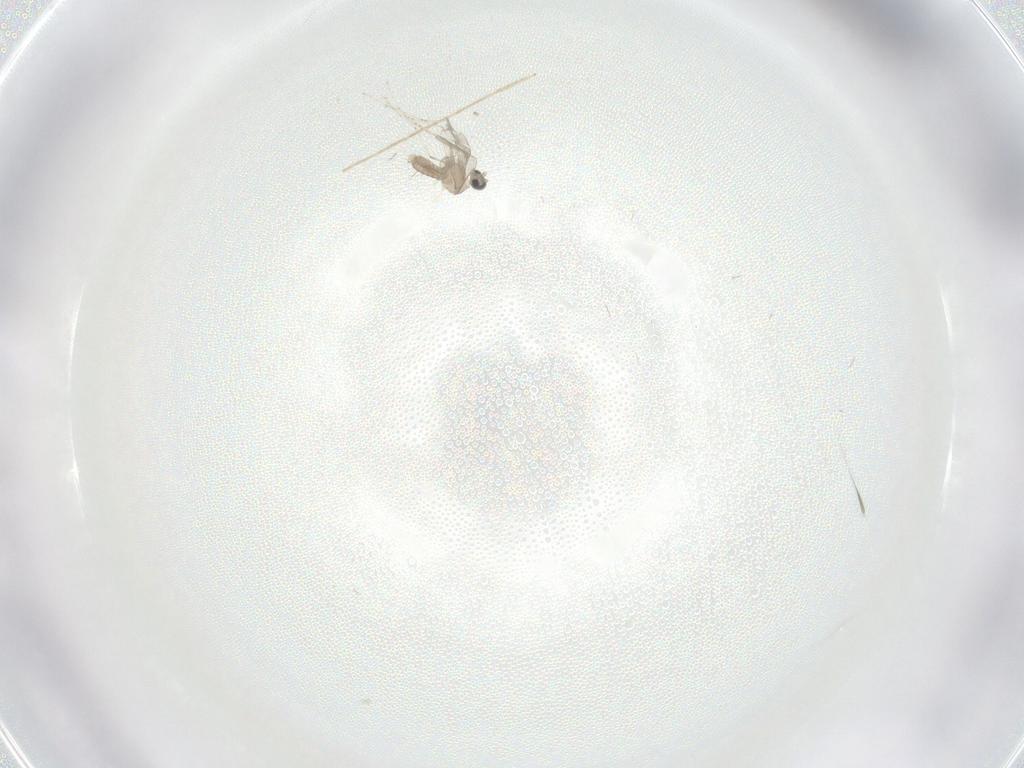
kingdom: Animalia
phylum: Arthropoda
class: Insecta
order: Diptera
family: Chironomidae
